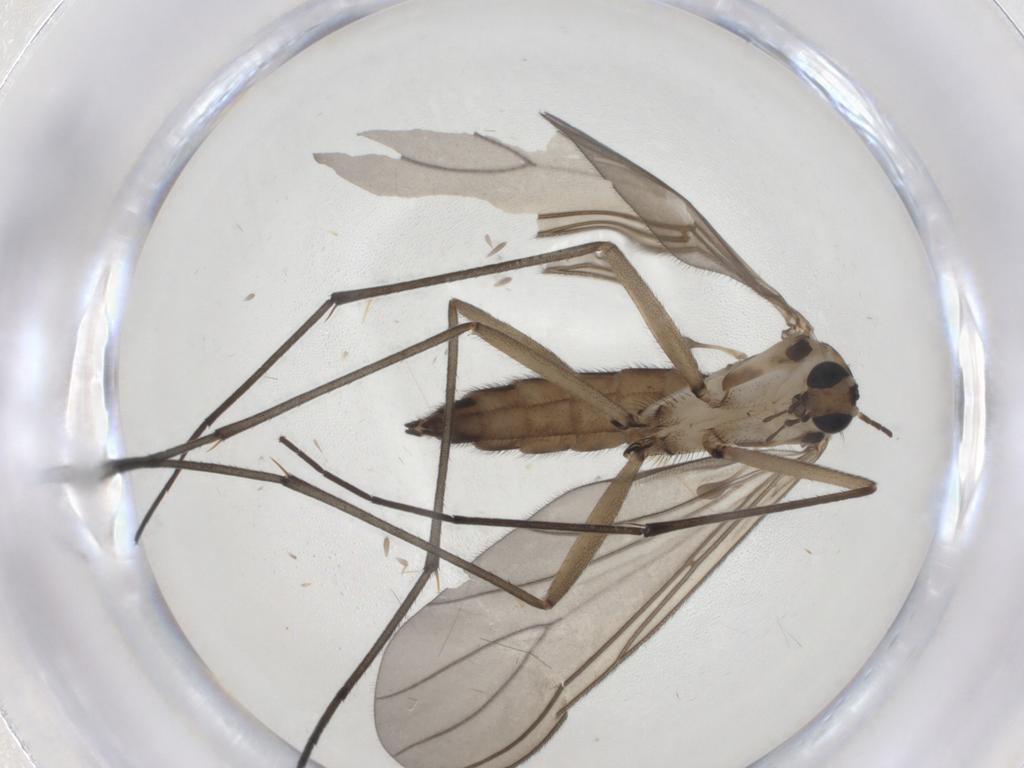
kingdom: Animalia
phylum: Arthropoda
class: Insecta
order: Diptera
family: Sciaridae
